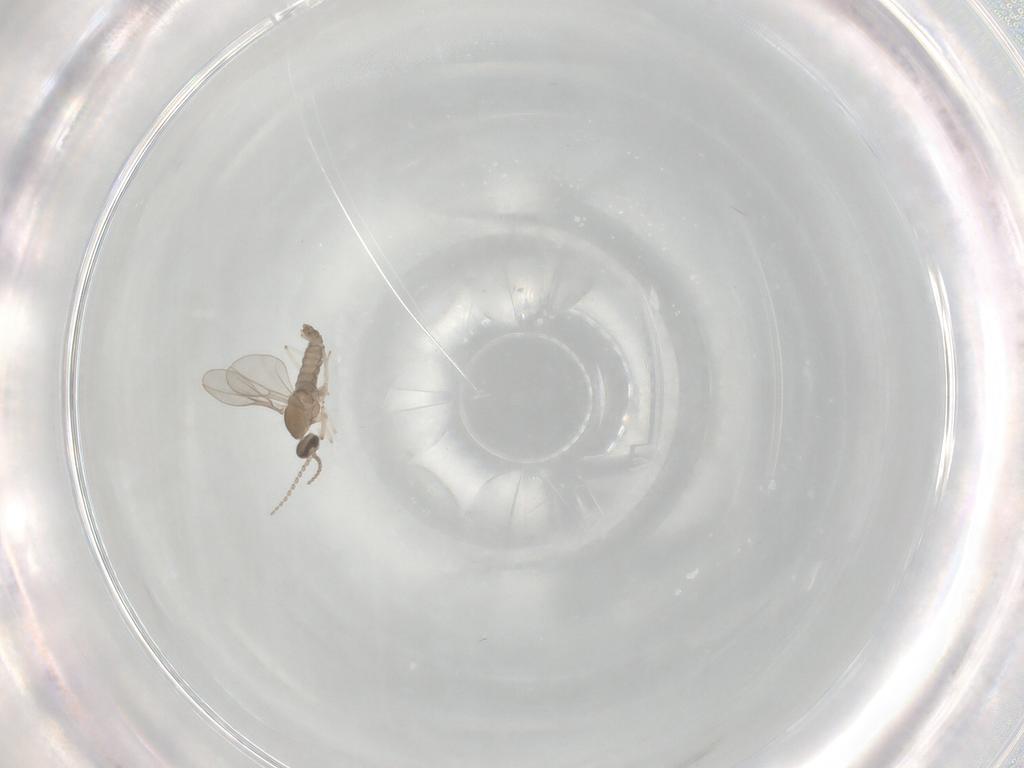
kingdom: Animalia
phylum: Arthropoda
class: Insecta
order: Diptera
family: Cecidomyiidae
